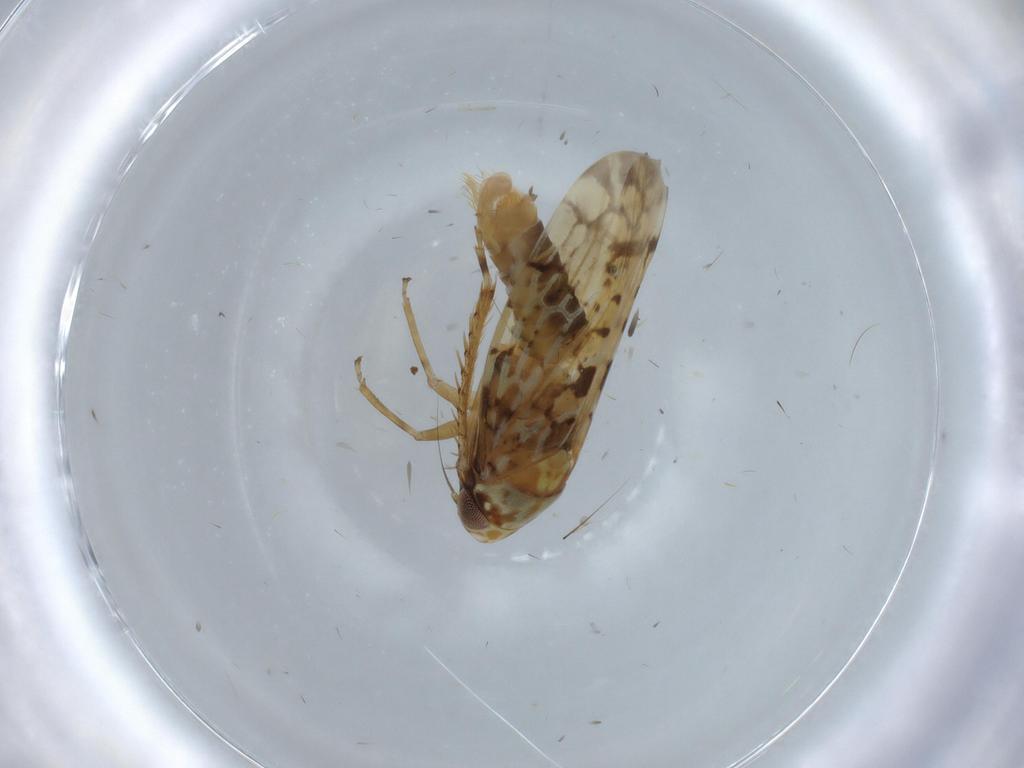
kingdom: Animalia
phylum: Arthropoda
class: Insecta
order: Hemiptera
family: Cicadellidae
